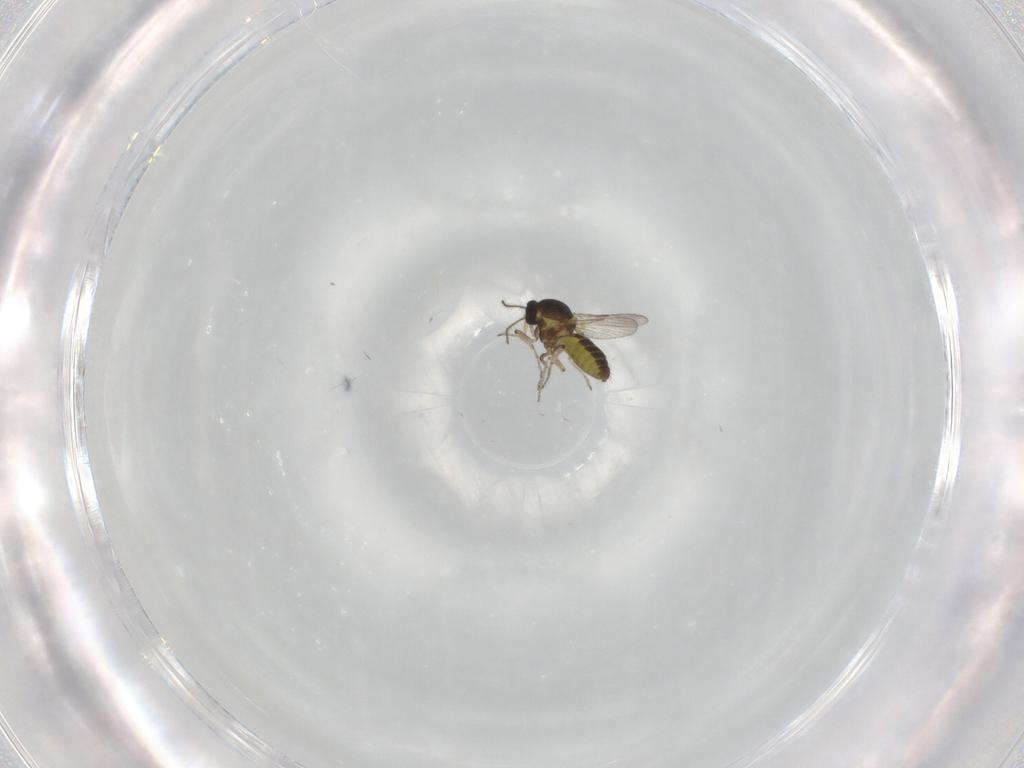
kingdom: Animalia
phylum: Arthropoda
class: Insecta
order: Diptera
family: Ceratopogonidae
